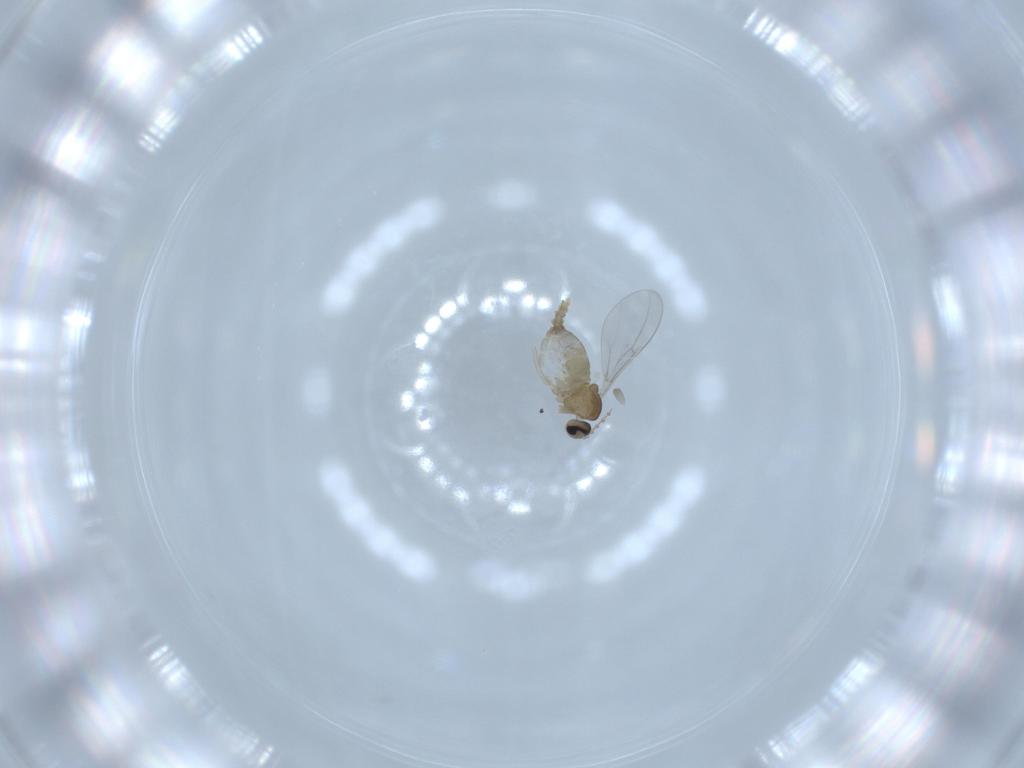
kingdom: Animalia
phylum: Arthropoda
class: Insecta
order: Diptera
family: Cecidomyiidae
